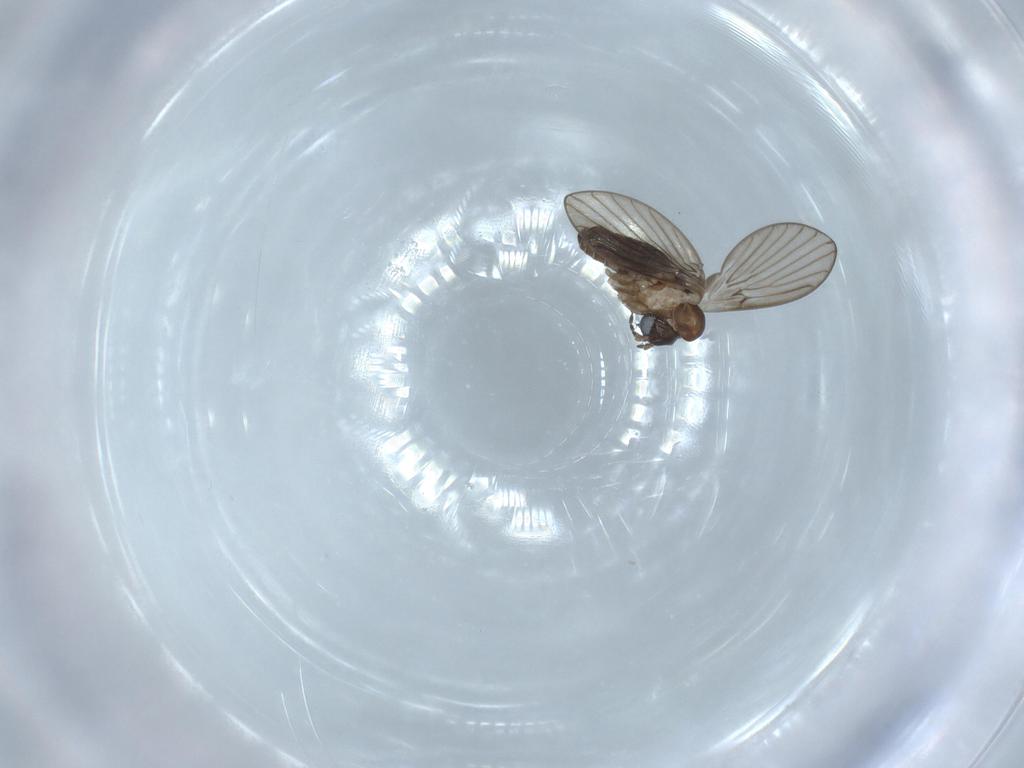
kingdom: Animalia
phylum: Arthropoda
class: Insecta
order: Diptera
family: Psychodidae
